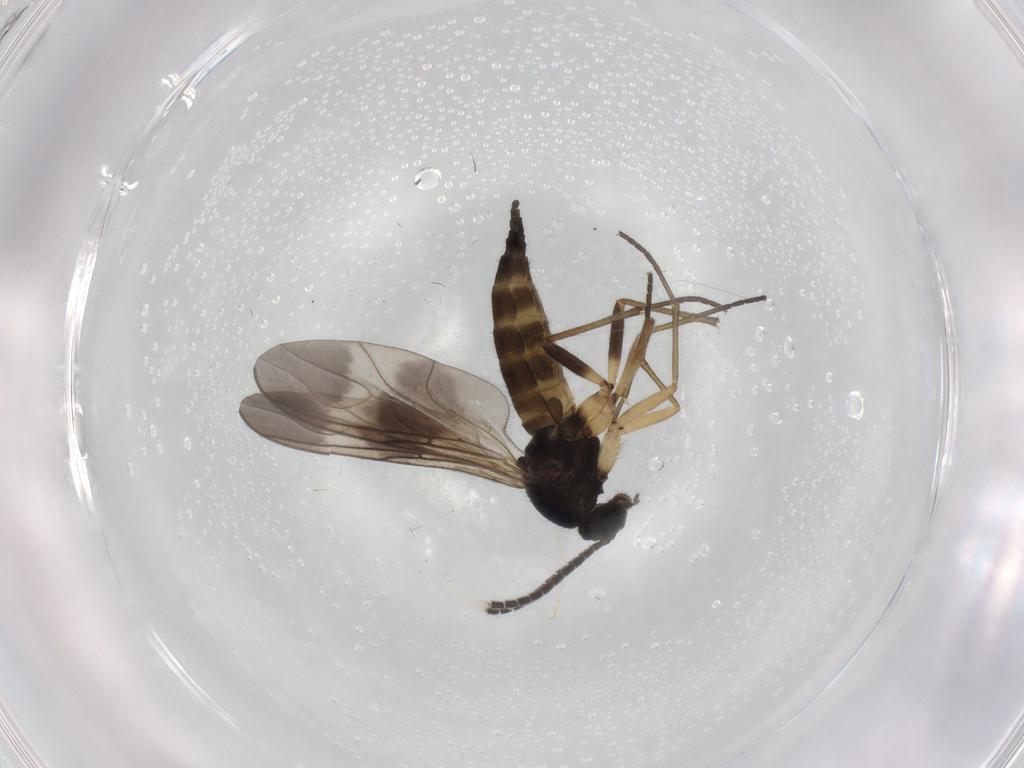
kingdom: Animalia
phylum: Arthropoda
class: Insecta
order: Diptera
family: Sciaridae
